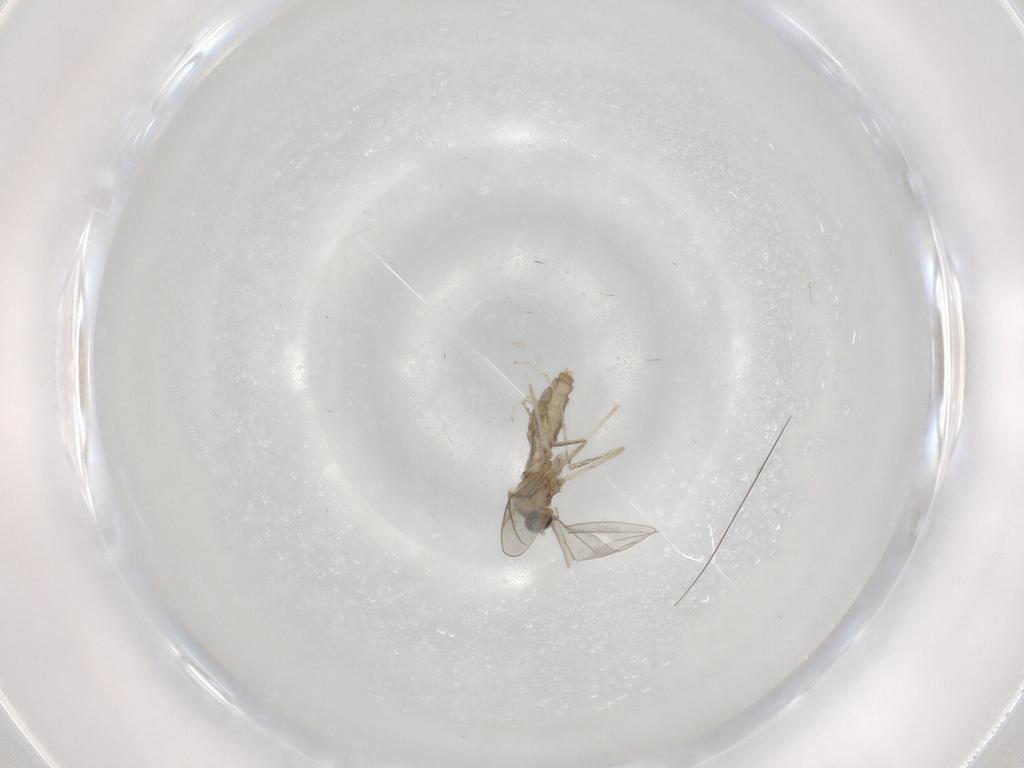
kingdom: Animalia
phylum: Arthropoda
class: Insecta
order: Diptera
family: Cecidomyiidae
